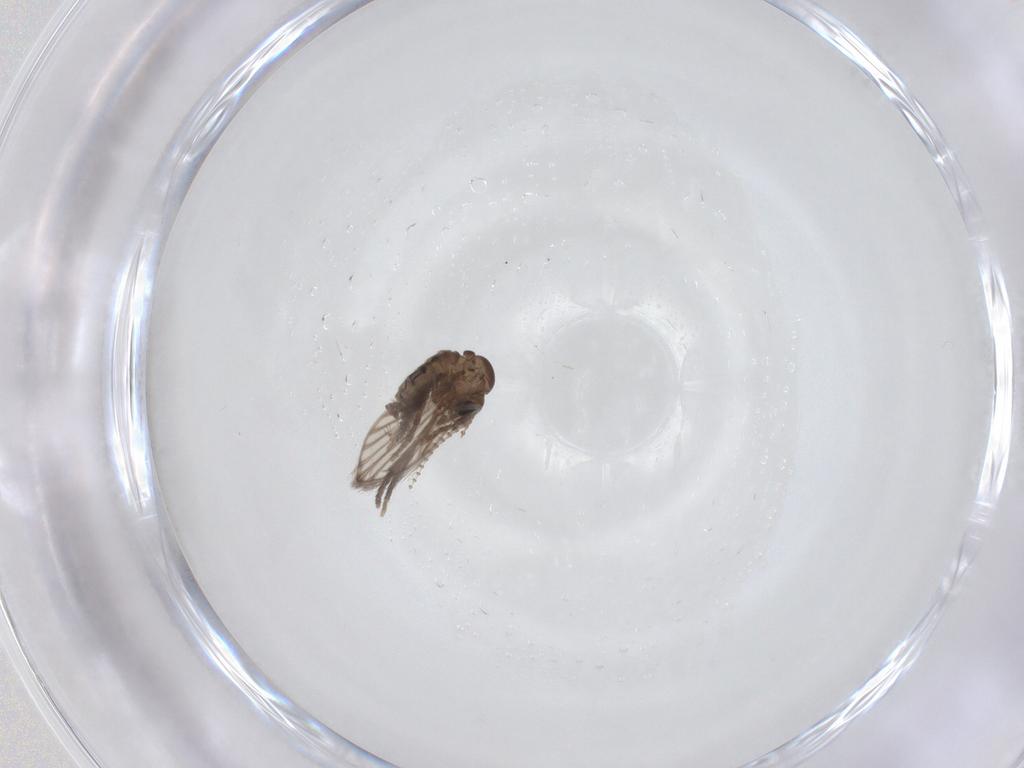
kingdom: Animalia
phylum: Arthropoda
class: Insecta
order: Diptera
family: Psychodidae
